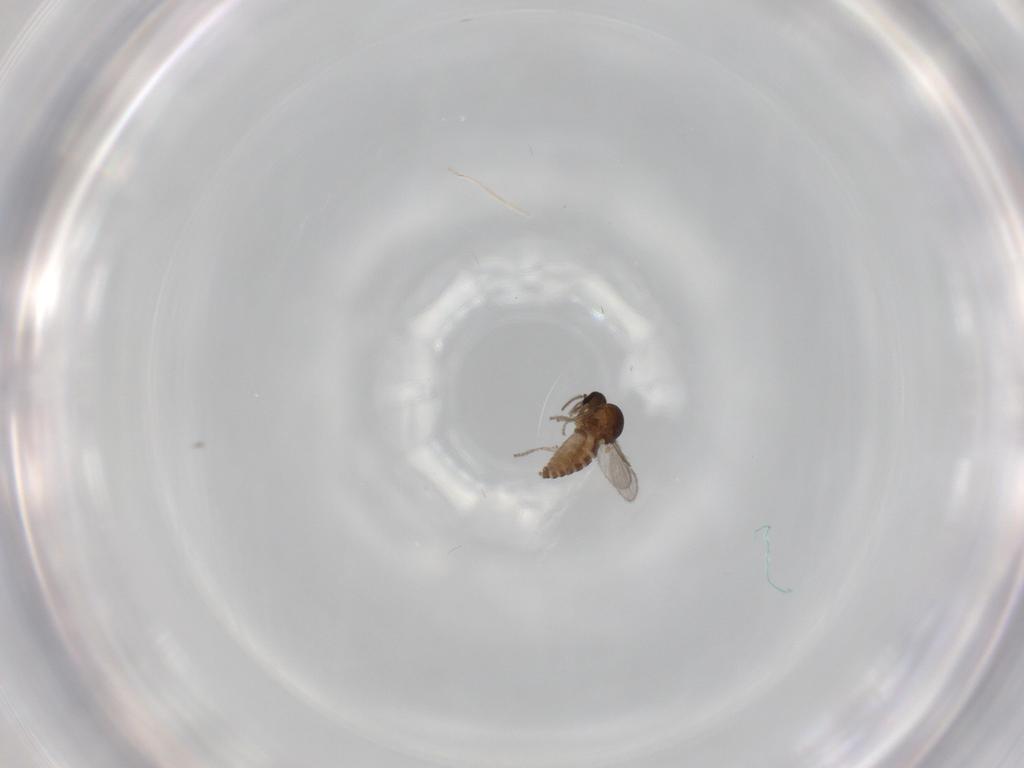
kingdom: Animalia
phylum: Arthropoda
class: Insecta
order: Diptera
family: Ceratopogonidae
